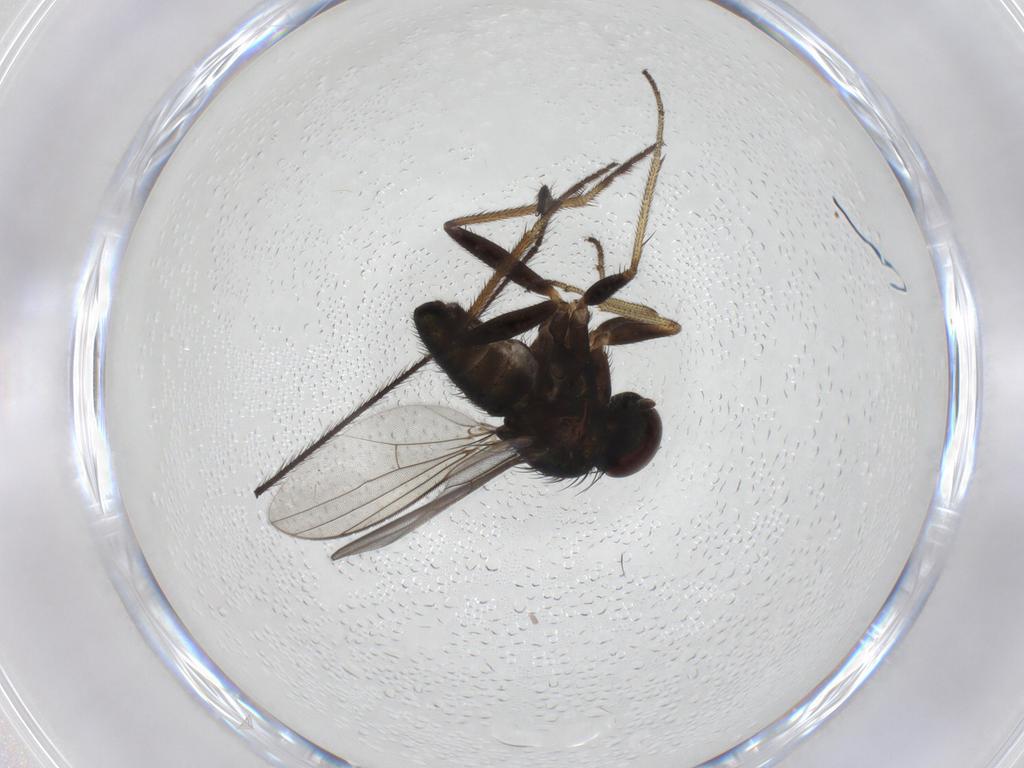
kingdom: Animalia
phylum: Arthropoda
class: Insecta
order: Diptera
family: Limoniidae
